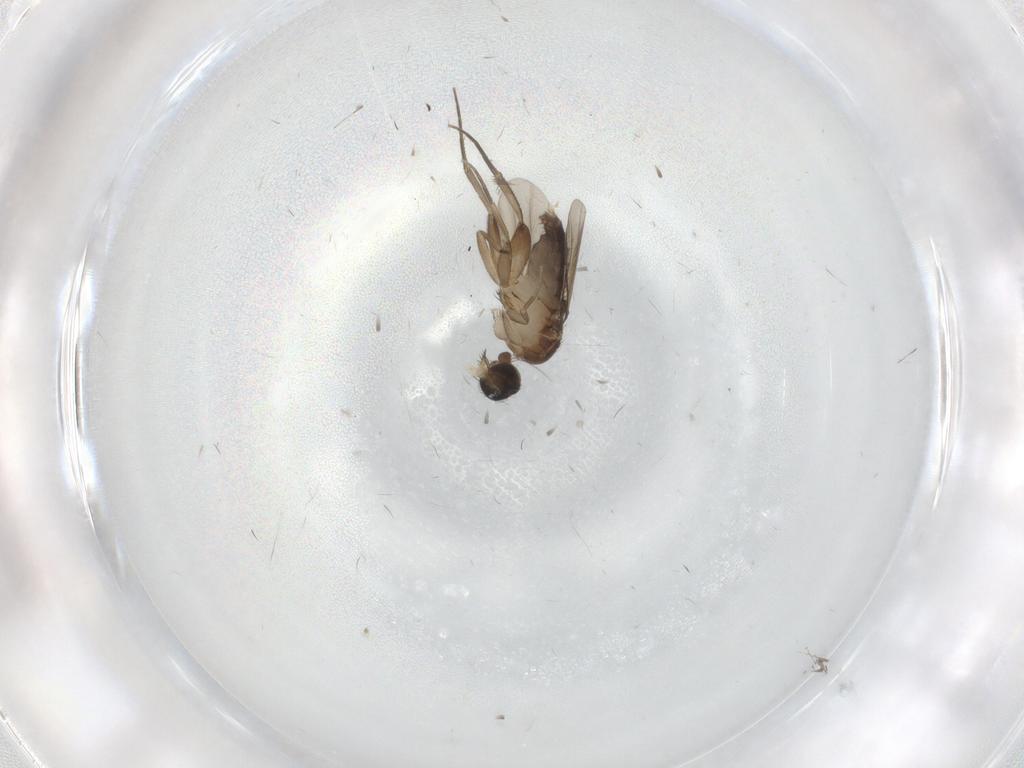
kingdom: Animalia
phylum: Arthropoda
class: Insecta
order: Diptera
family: Phoridae
